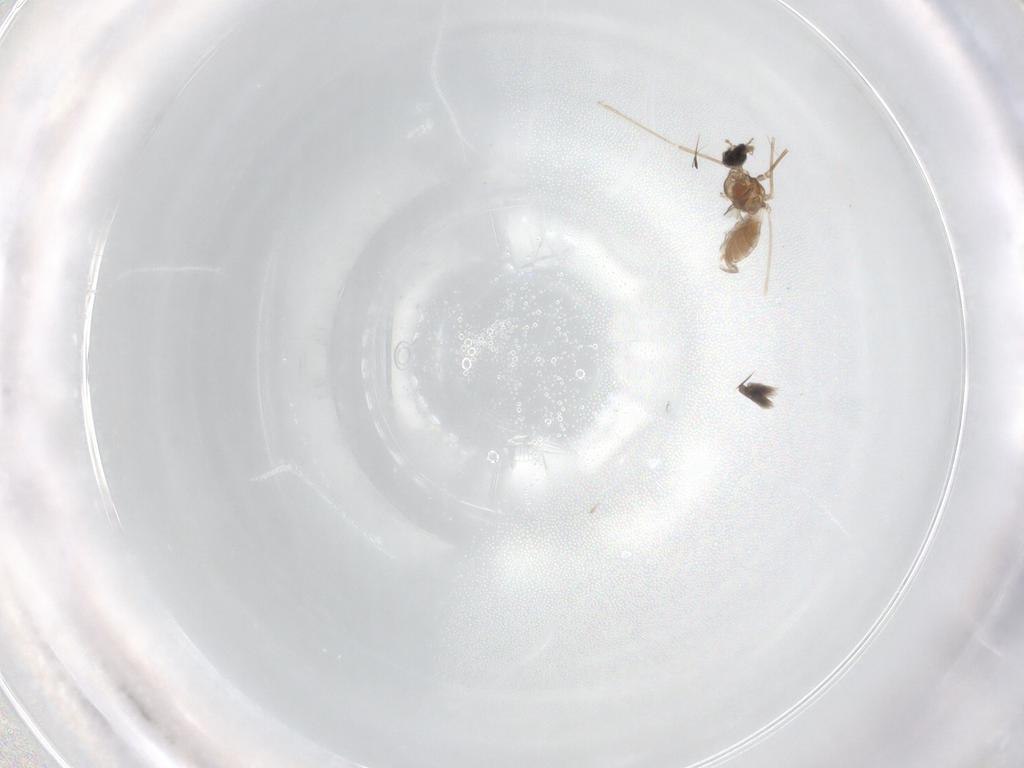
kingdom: Animalia
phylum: Arthropoda
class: Insecta
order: Diptera
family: Cecidomyiidae
